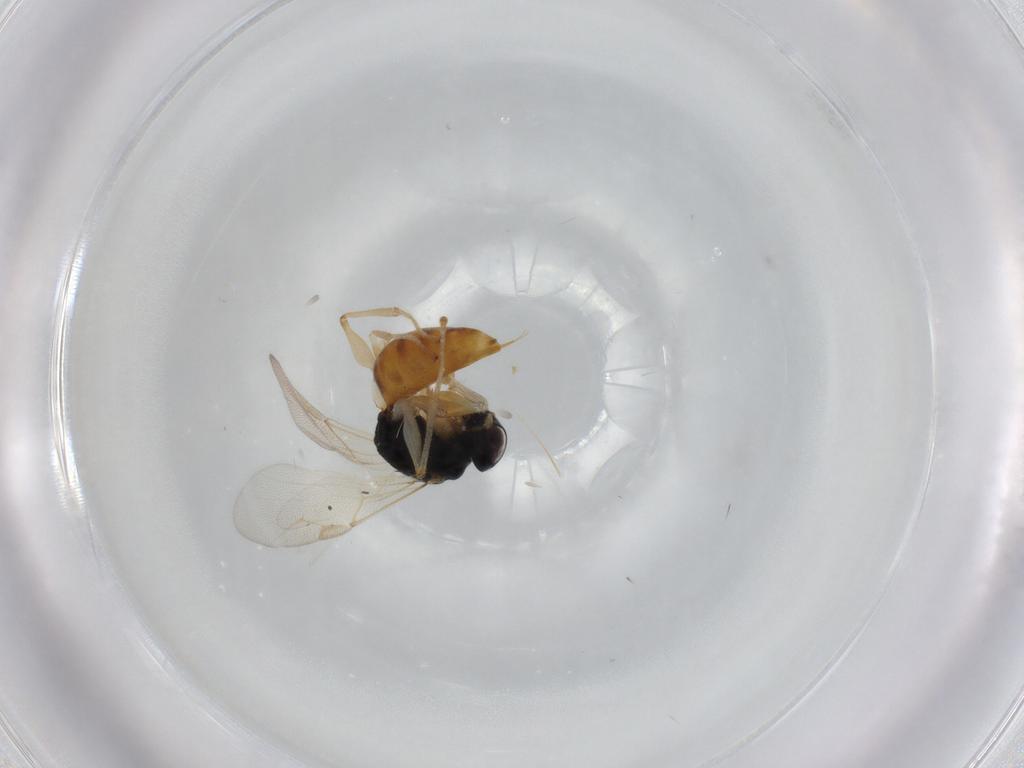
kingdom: Animalia
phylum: Arthropoda
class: Insecta
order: Hymenoptera
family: Dryinidae
